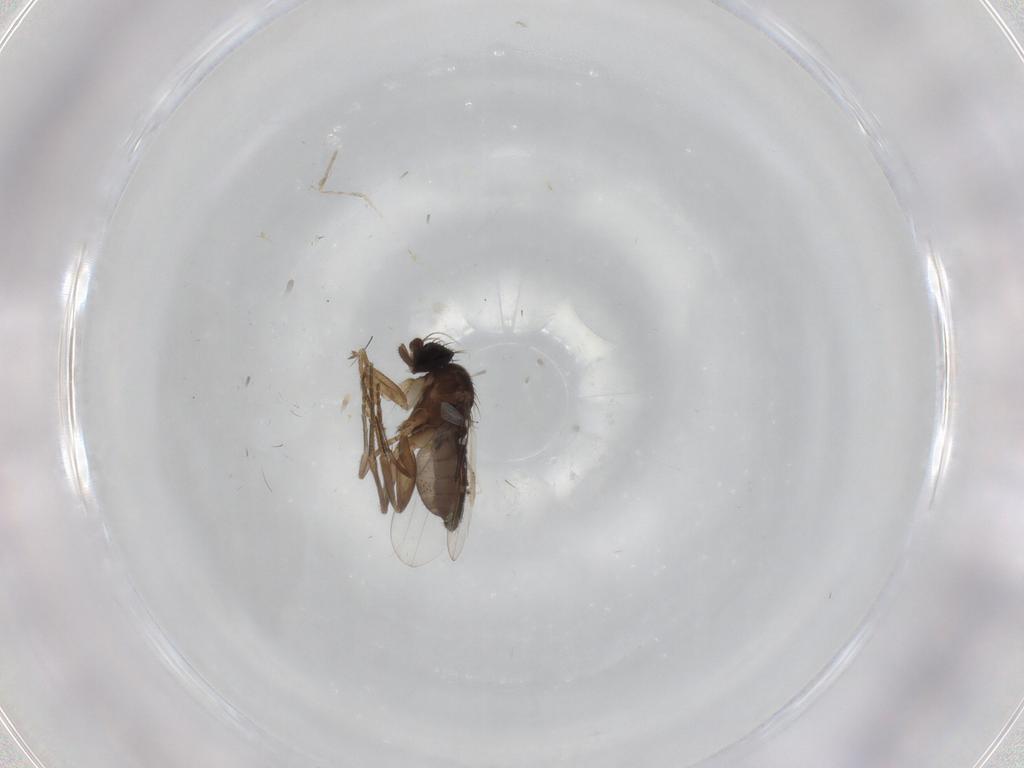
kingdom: Animalia
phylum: Arthropoda
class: Insecta
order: Diptera
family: Phoridae
